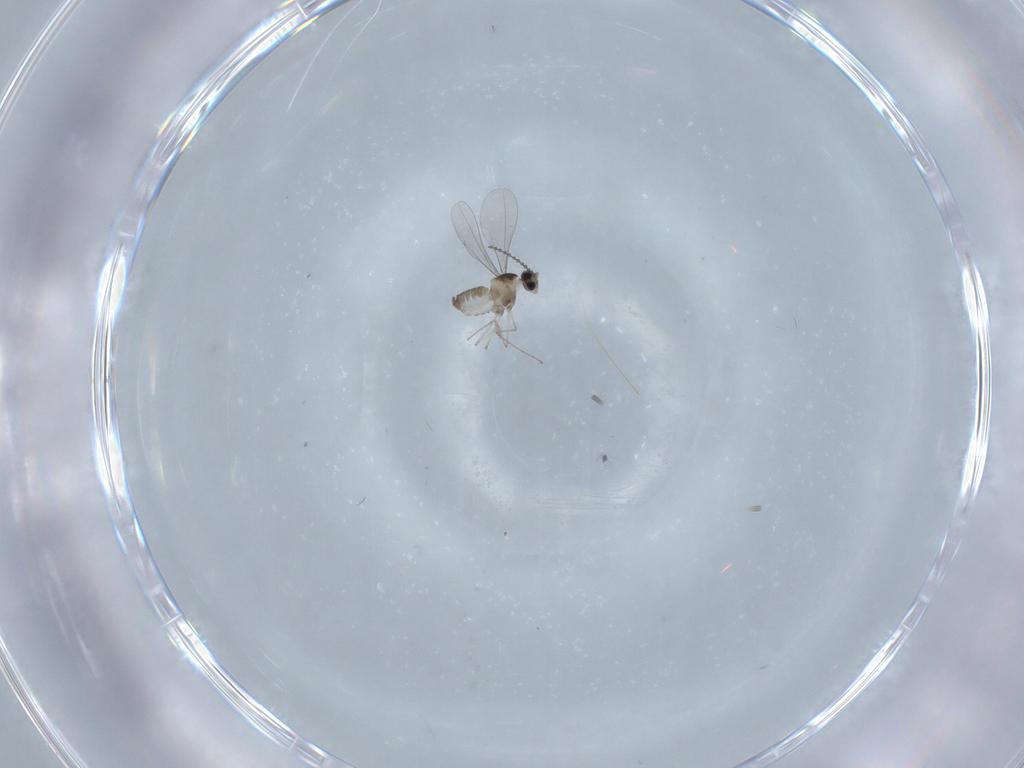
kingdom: Animalia
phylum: Arthropoda
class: Insecta
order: Diptera
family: Cecidomyiidae
